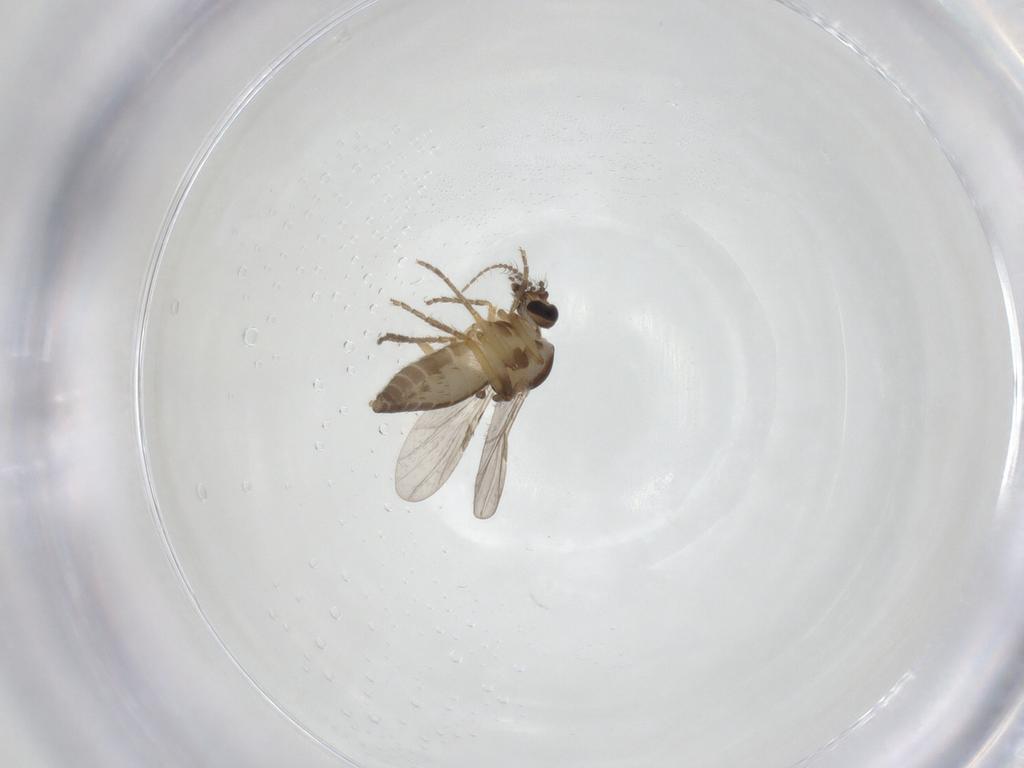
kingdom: Animalia
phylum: Arthropoda
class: Insecta
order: Diptera
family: Ceratopogonidae
